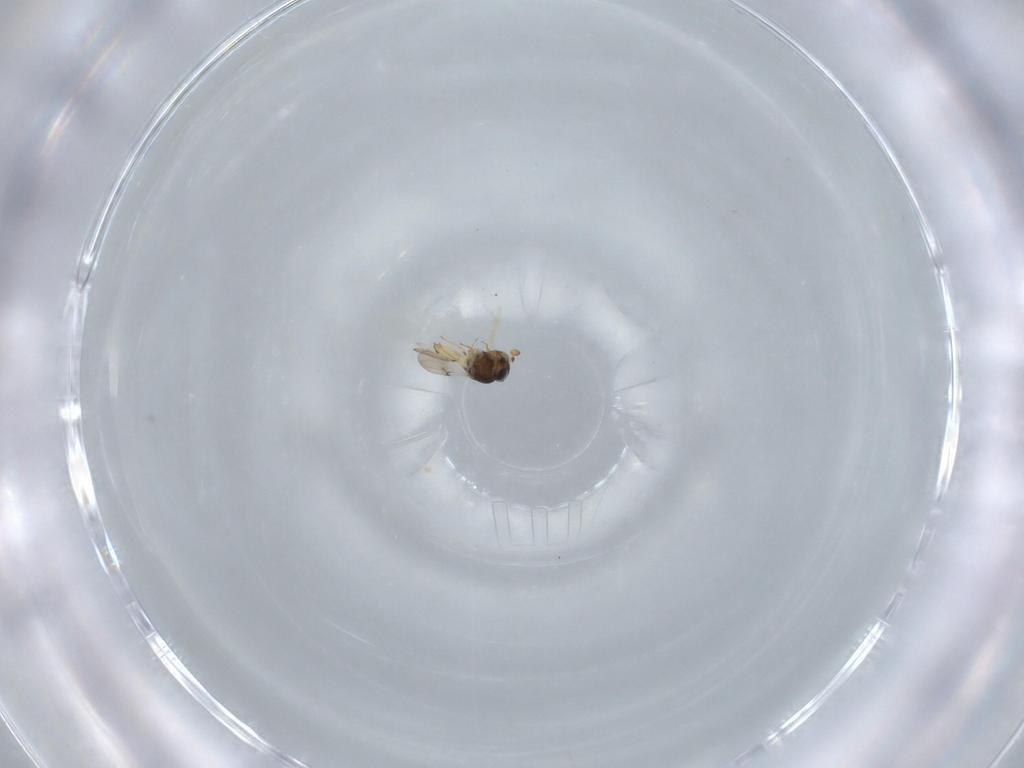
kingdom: Animalia
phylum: Arthropoda
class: Insecta
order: Hymenoptera
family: Scelionidae
